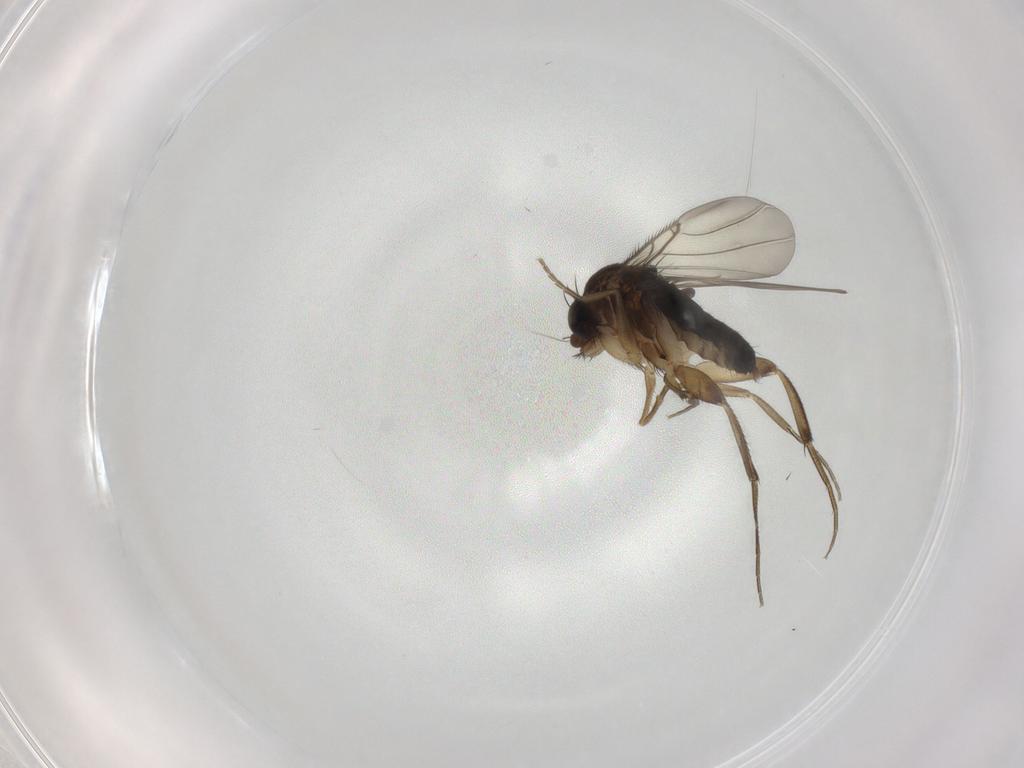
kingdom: Animalia
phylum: Arthropoda
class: Insecta
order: Diptera
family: Phoridae
